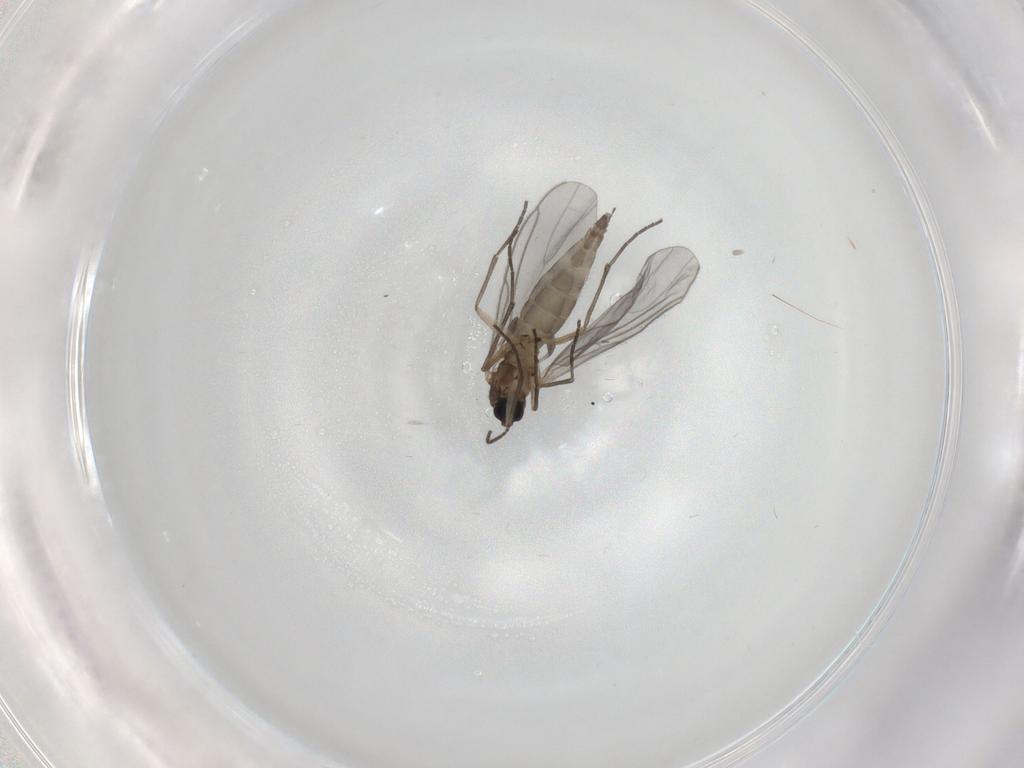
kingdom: Animalia
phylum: Arthropoda
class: Insecta
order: Diptera
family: Sciaridae
